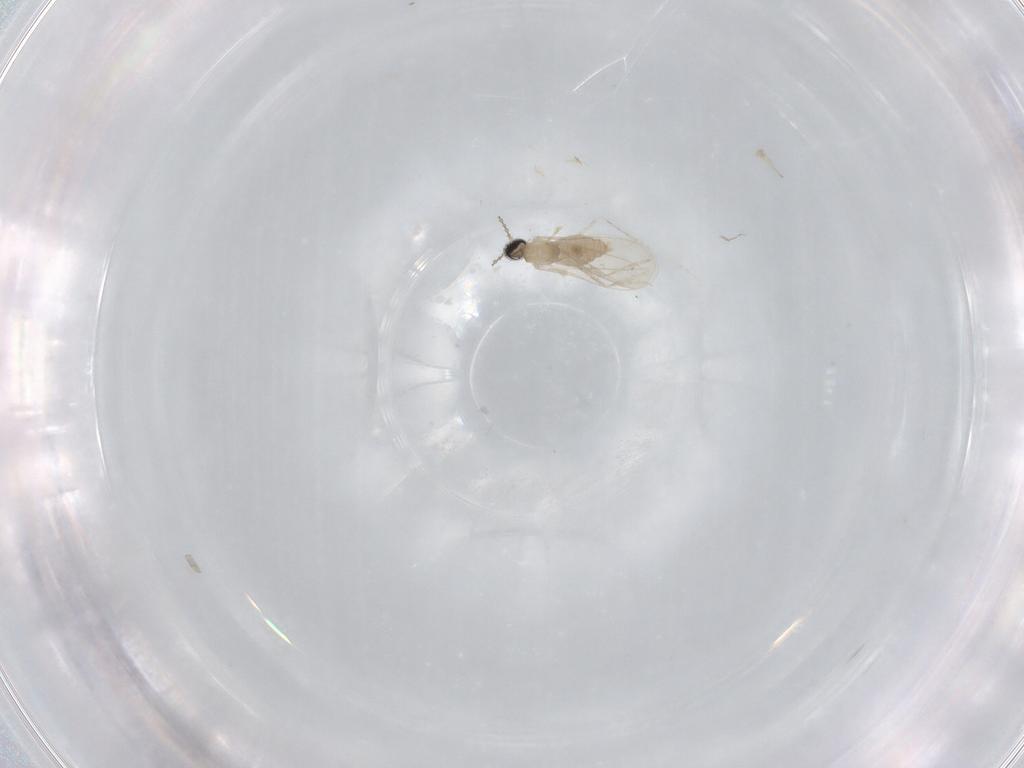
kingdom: Animalia
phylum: Arthropoda
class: Insecta
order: Diptera
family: Cecidomyiidae
